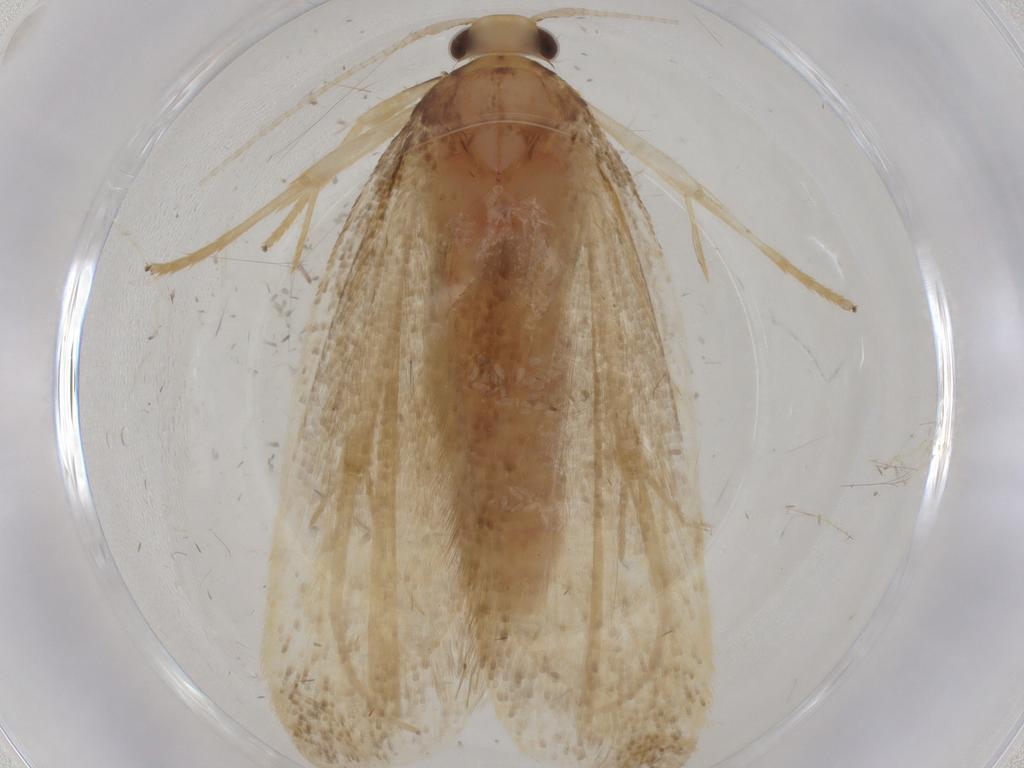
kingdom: Animalia
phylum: Arthropoda
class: Insecta
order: Lepidoptera
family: Lecithoceridae
